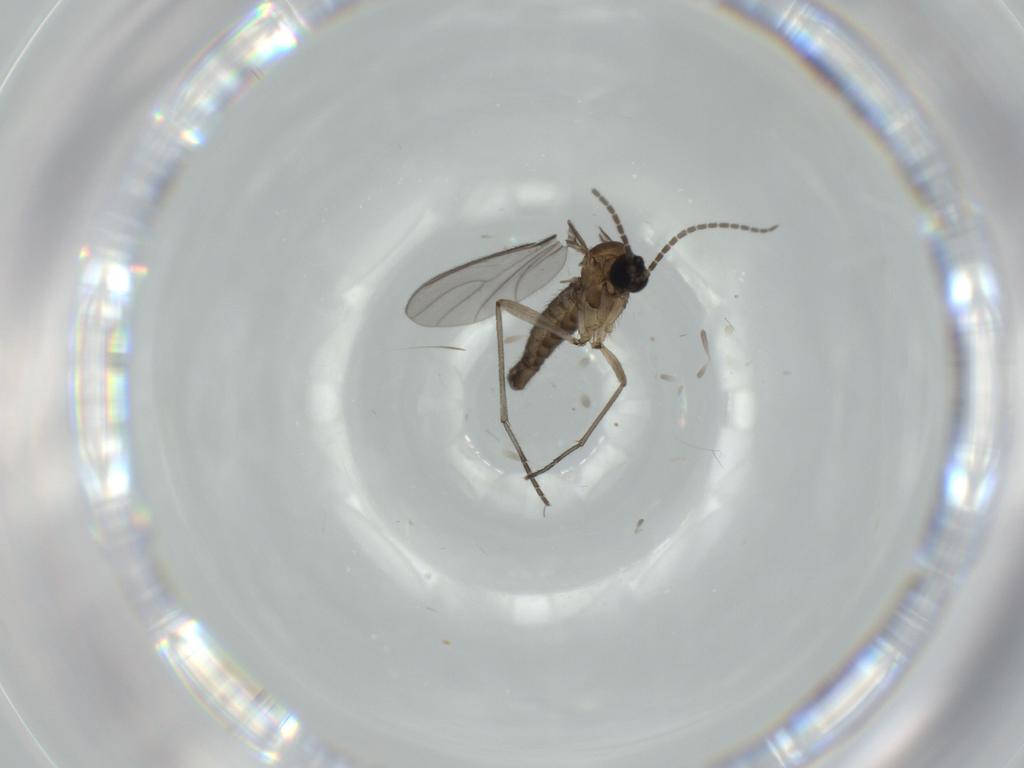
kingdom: Animalia
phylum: Arthropoda
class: Insecta
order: Diptera
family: Sciaridae
